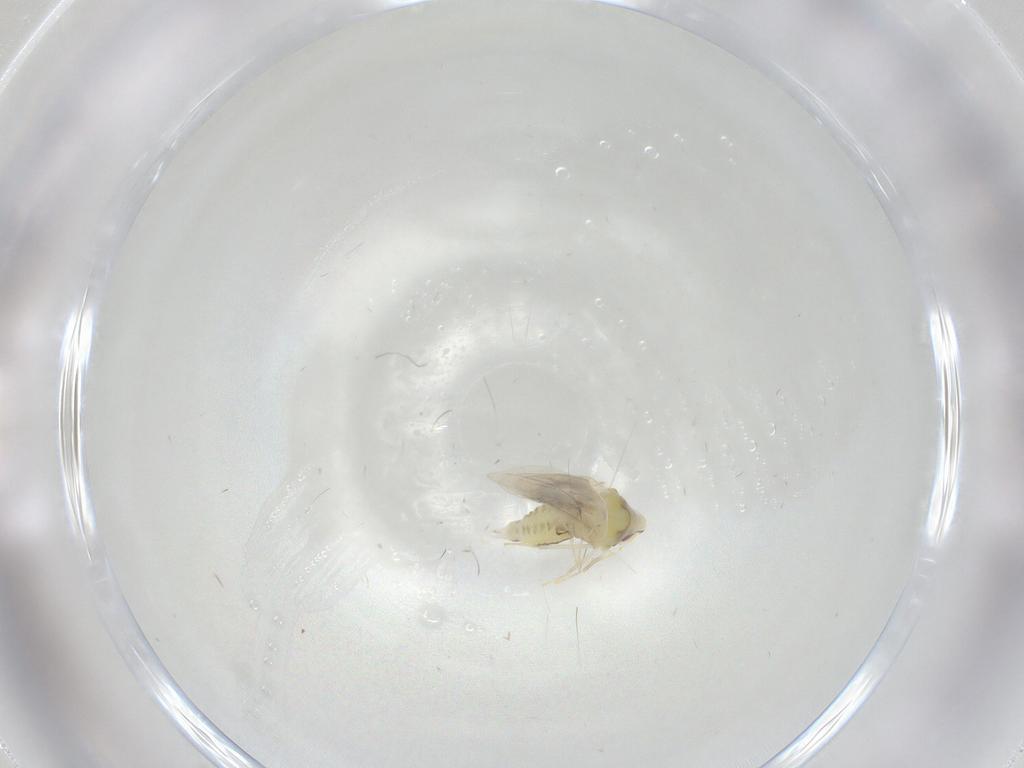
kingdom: Animalia
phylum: Arthropoda
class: Insecta
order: Hemiptera
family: Aleyrodidae
